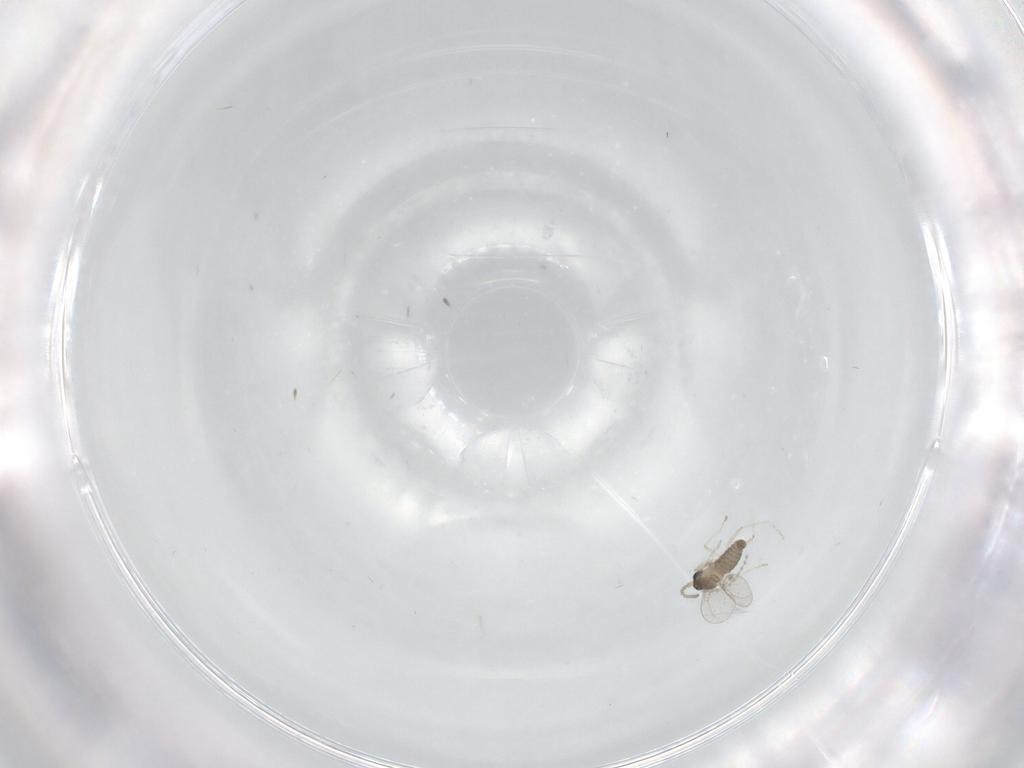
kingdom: Animalia
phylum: Arthropoda
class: Insecta
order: Diptera
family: Cecidomyiidae
